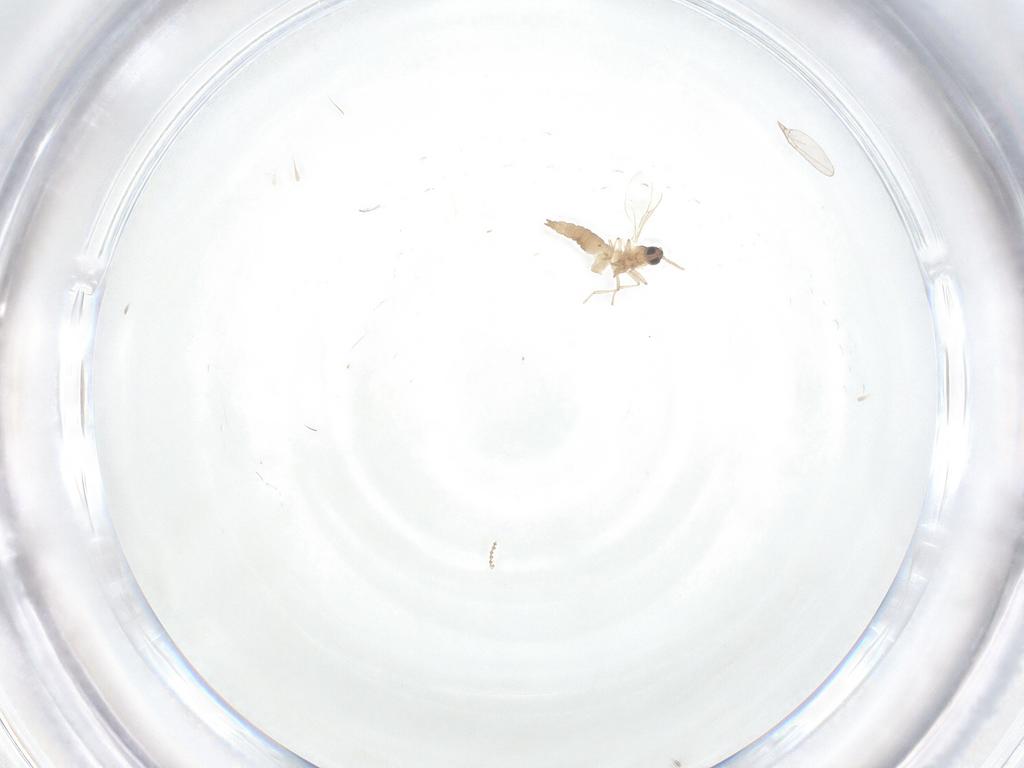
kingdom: Animalia
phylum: Arthropoda
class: Insecta
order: Diptera
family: Cecidomyiidae
